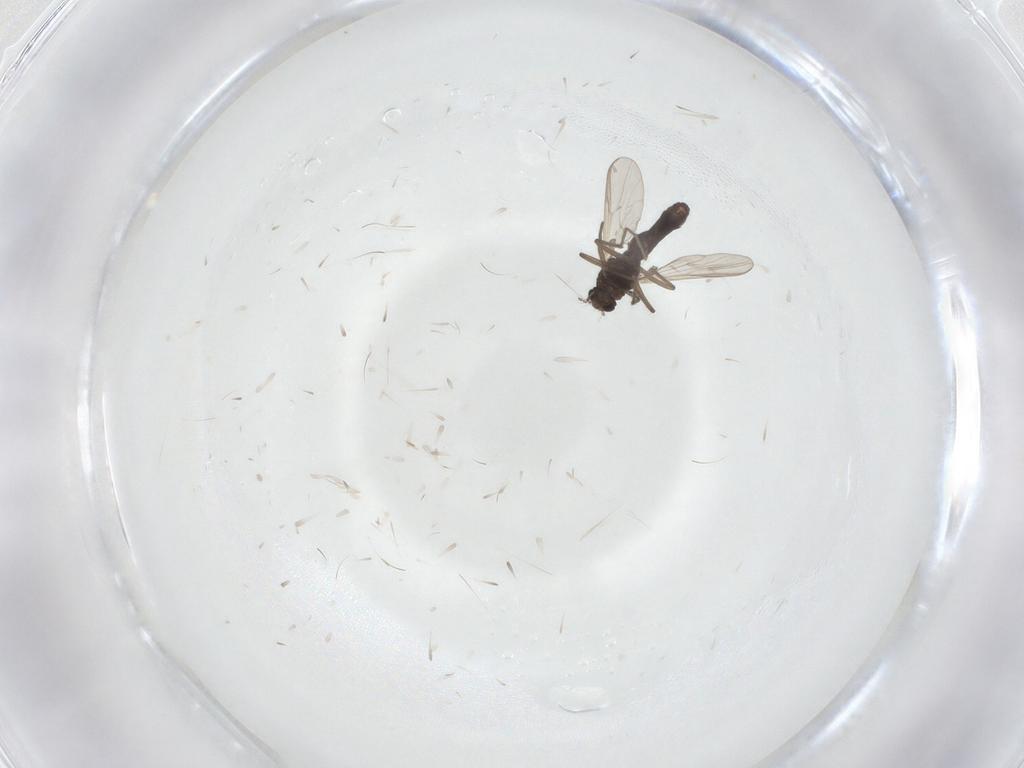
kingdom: Animalia
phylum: Arthropoda
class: Insecta
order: Diptera
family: Chironomidae
